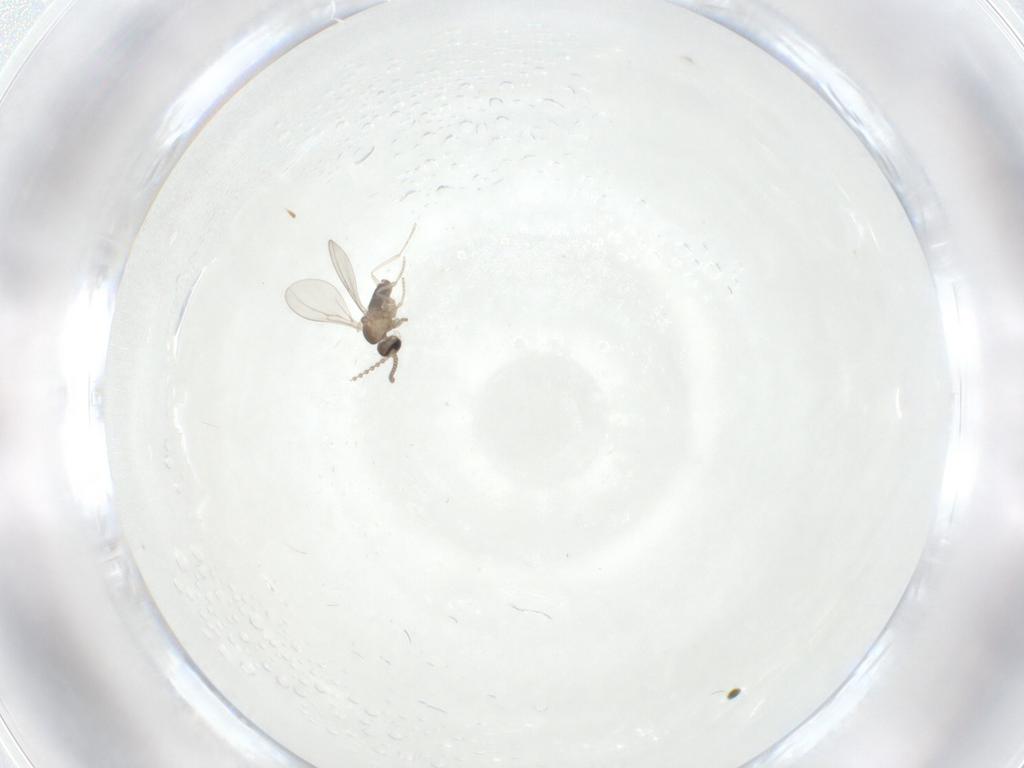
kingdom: Animalia
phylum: Arthropoda
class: Insecta
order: Diptera
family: Cecidomyiidae
